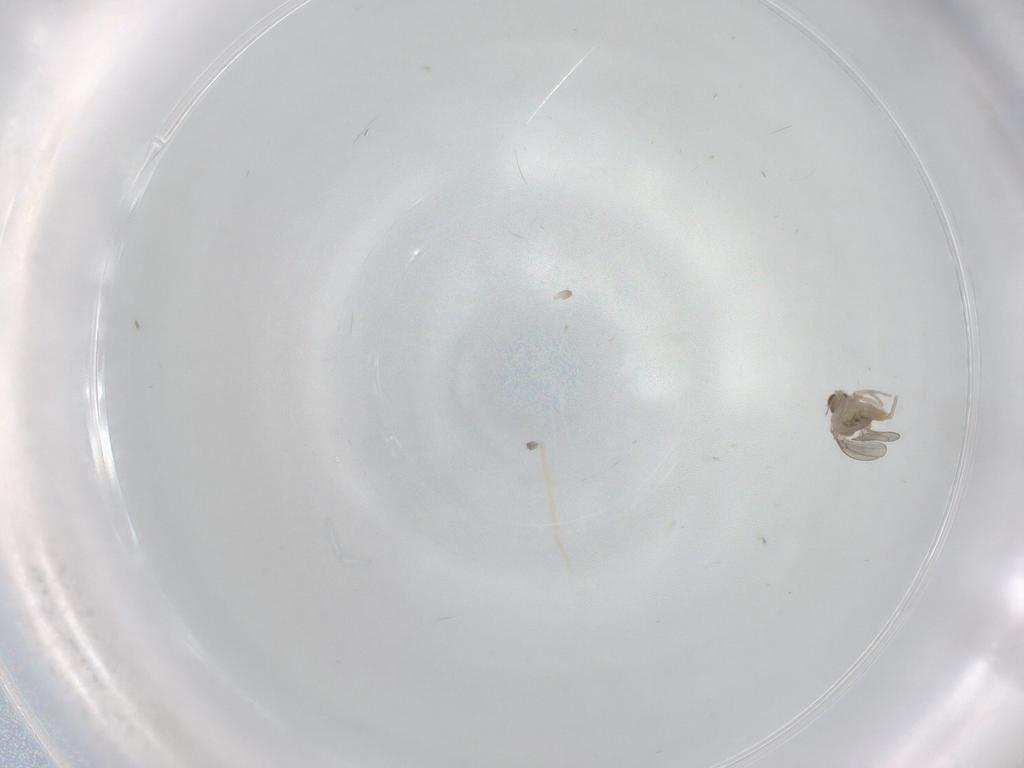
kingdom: Animalia
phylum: Arthropoda
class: Insecta
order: Diptera
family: Cecidomyiidae
